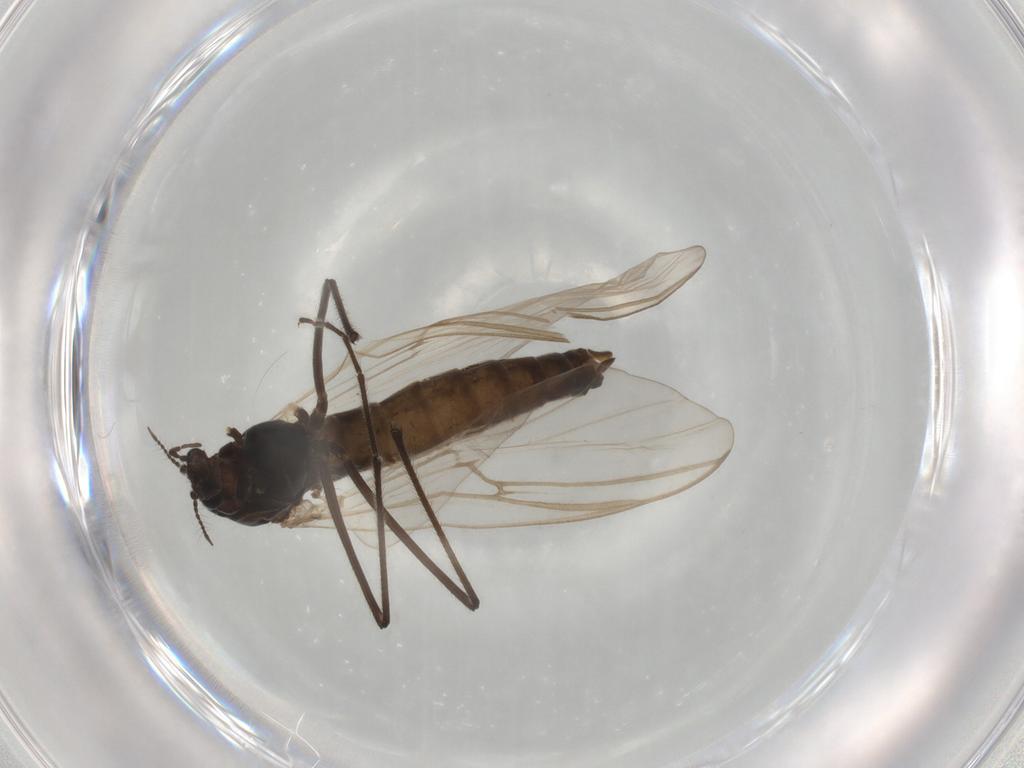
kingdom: Animalia
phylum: Arthropoda
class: Insecta
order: Diptera
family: Chironomidae
